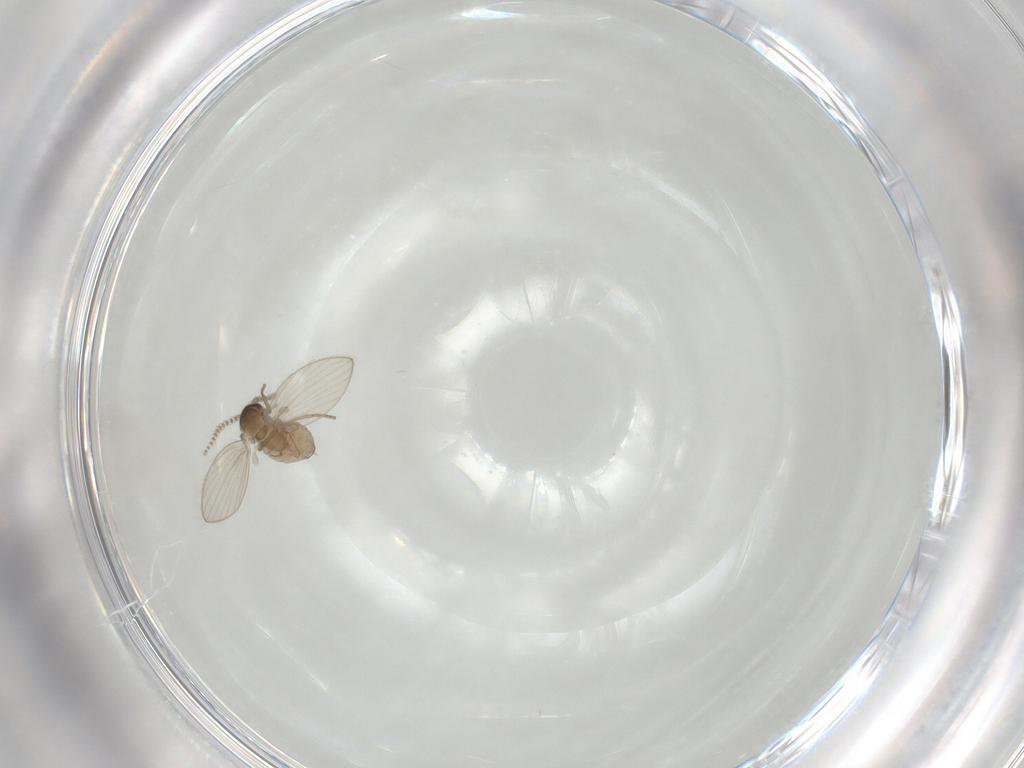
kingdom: Animalia
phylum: Arthropoda
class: Insecta
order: Diptera
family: Psychodidae
